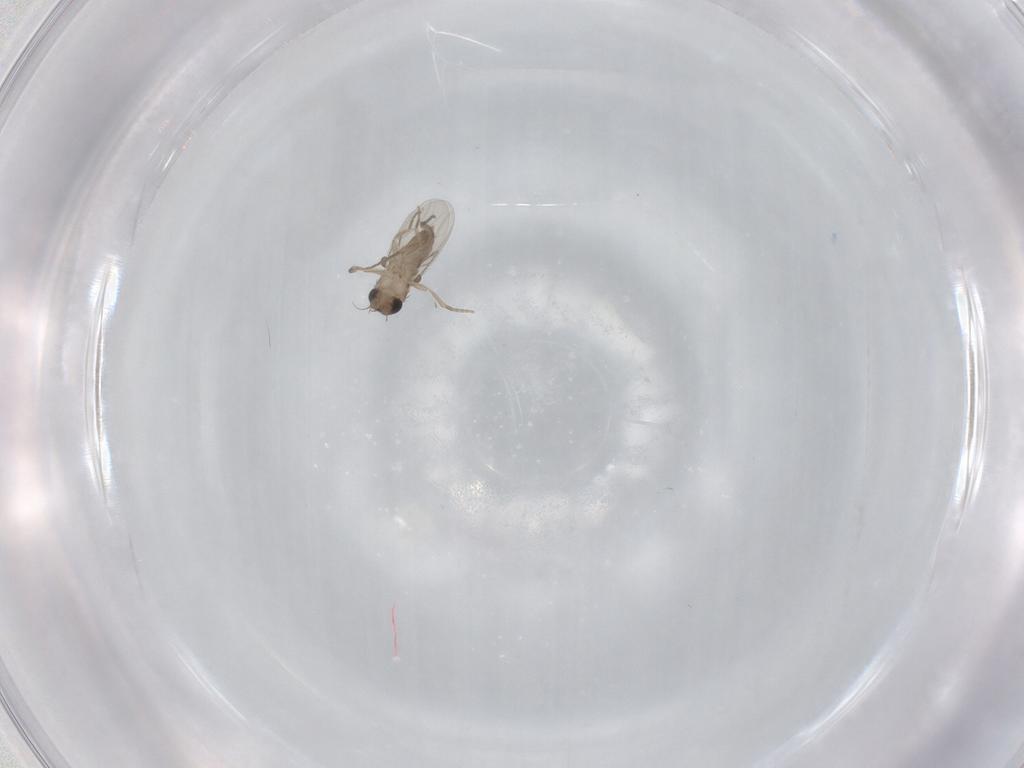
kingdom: Animalia
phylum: Arthropoda
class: Insecta
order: Diptera
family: Phoridae
